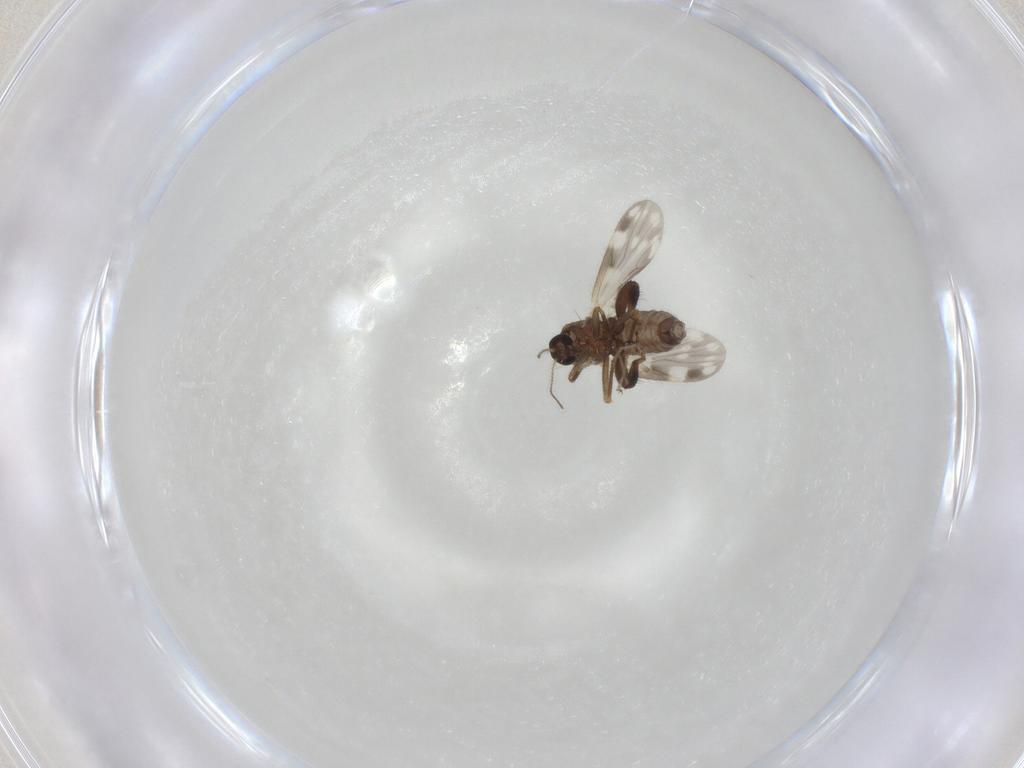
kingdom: Animalia
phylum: Arthropoda
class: Insecta
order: Diptera
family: Ceratopogonidae
